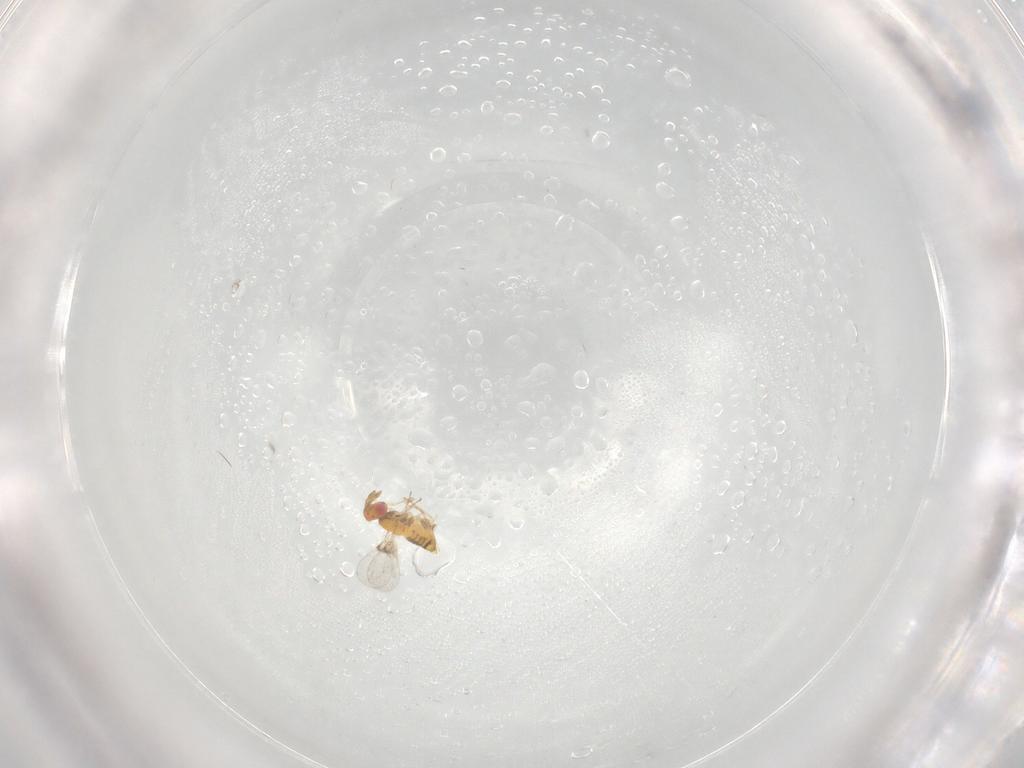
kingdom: Animalia
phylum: Arthropoda
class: Insecta
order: Hymenoptera
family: Trichogrammatidae
